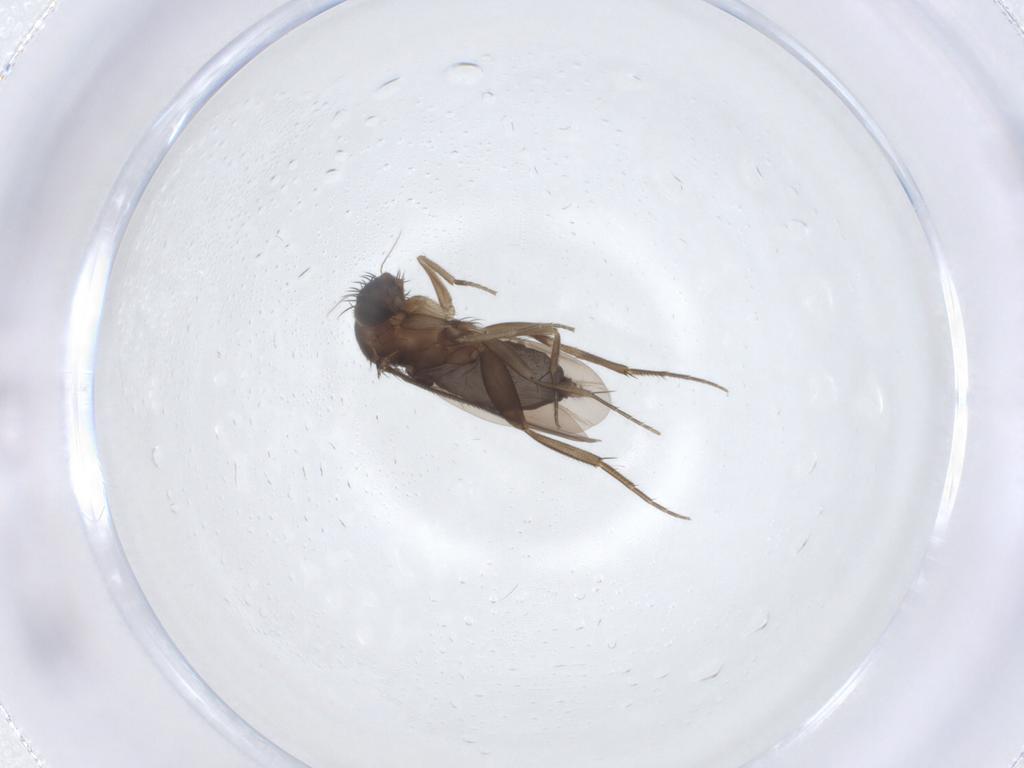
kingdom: Animalia
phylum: Arthropoda
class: Insecta
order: Diptera
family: Phoridae
